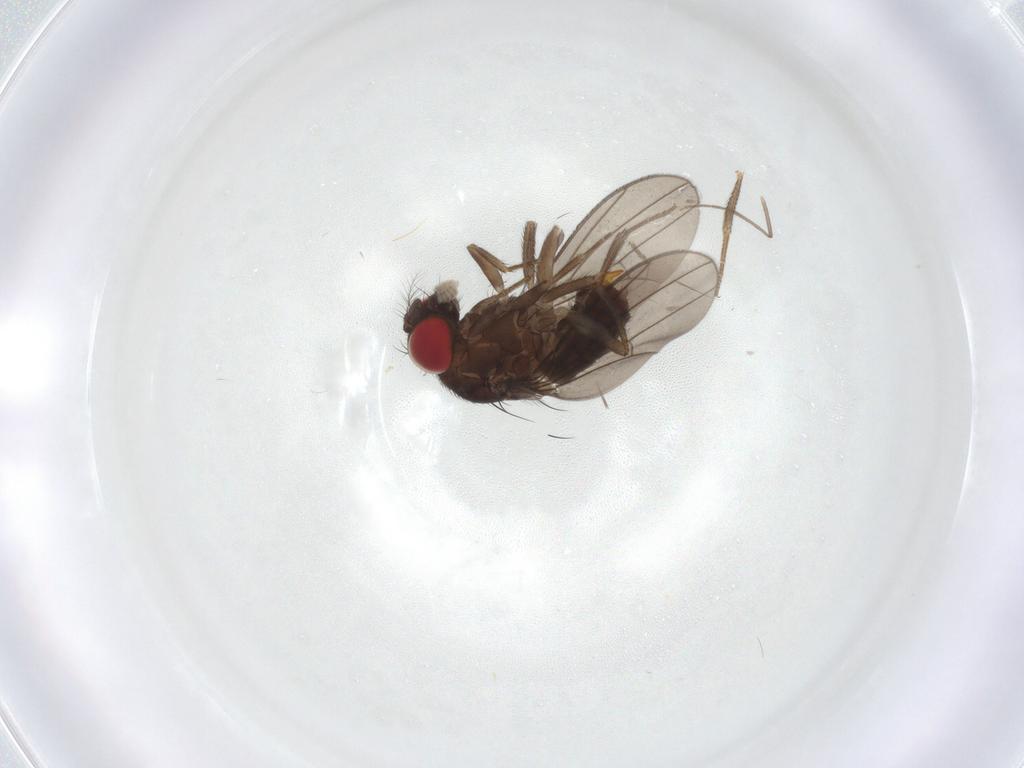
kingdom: Animalia
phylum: Arthropoda
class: Insecta
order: Diptera
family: Drosophilidae
